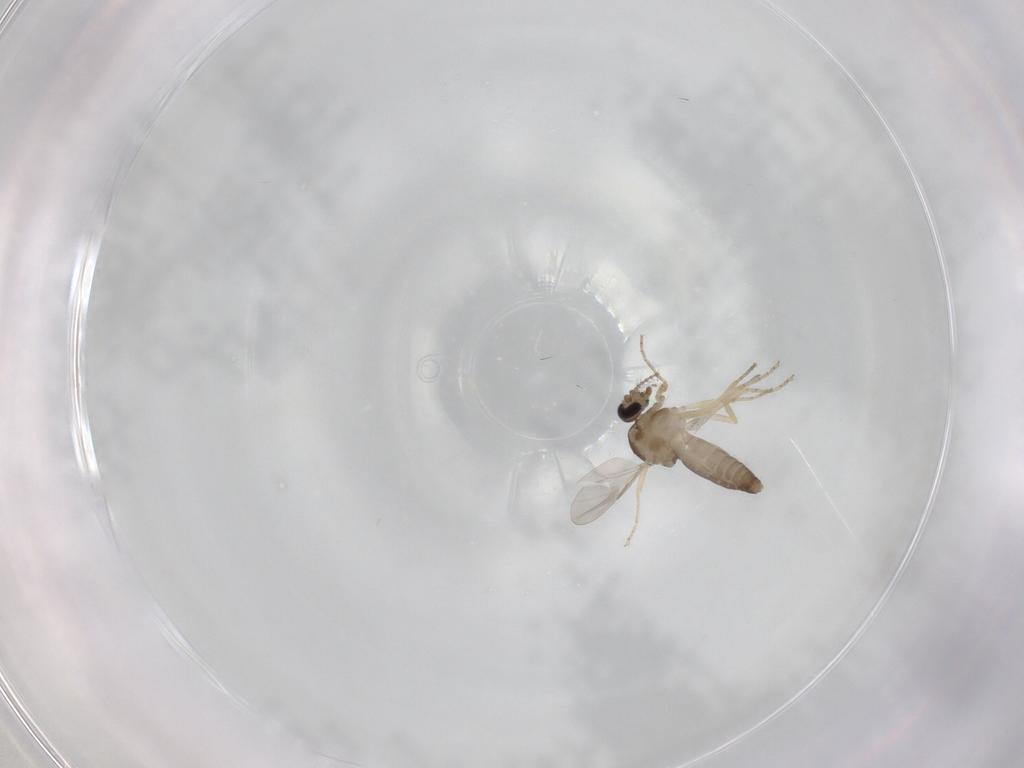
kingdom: Animalia
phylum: Arthropoda
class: Insecta
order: Diptera
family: Ceratopogonidae
